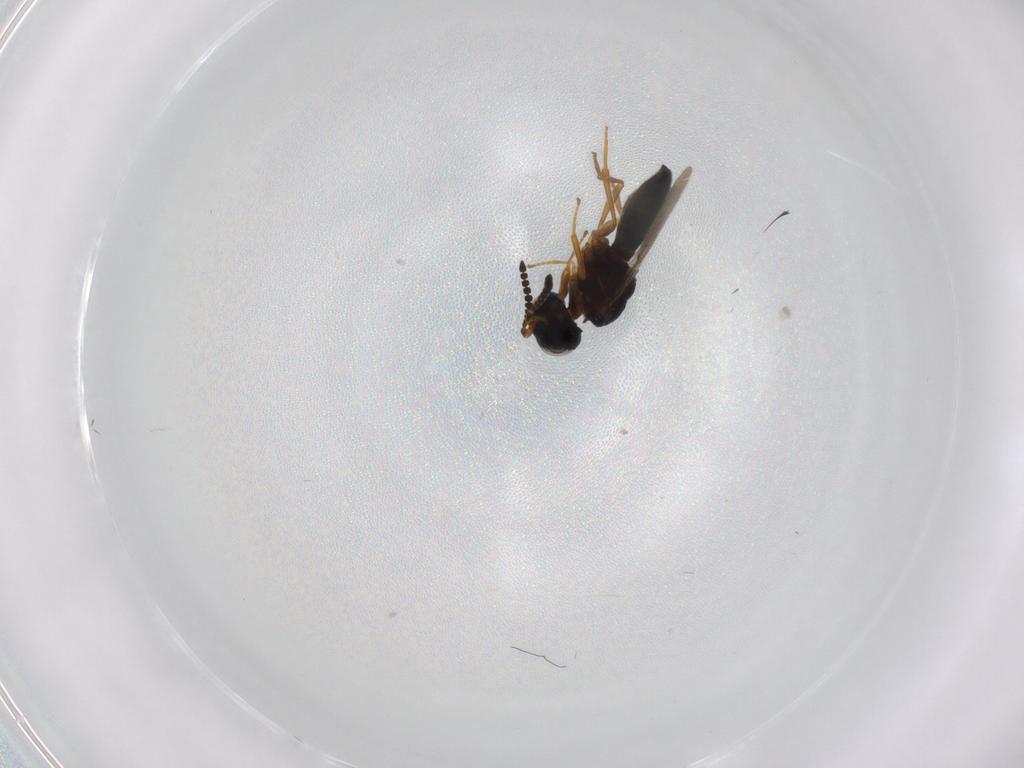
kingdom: Animalia
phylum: Arthropoda
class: Insecta
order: Hymenoptera
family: Scelionidae
